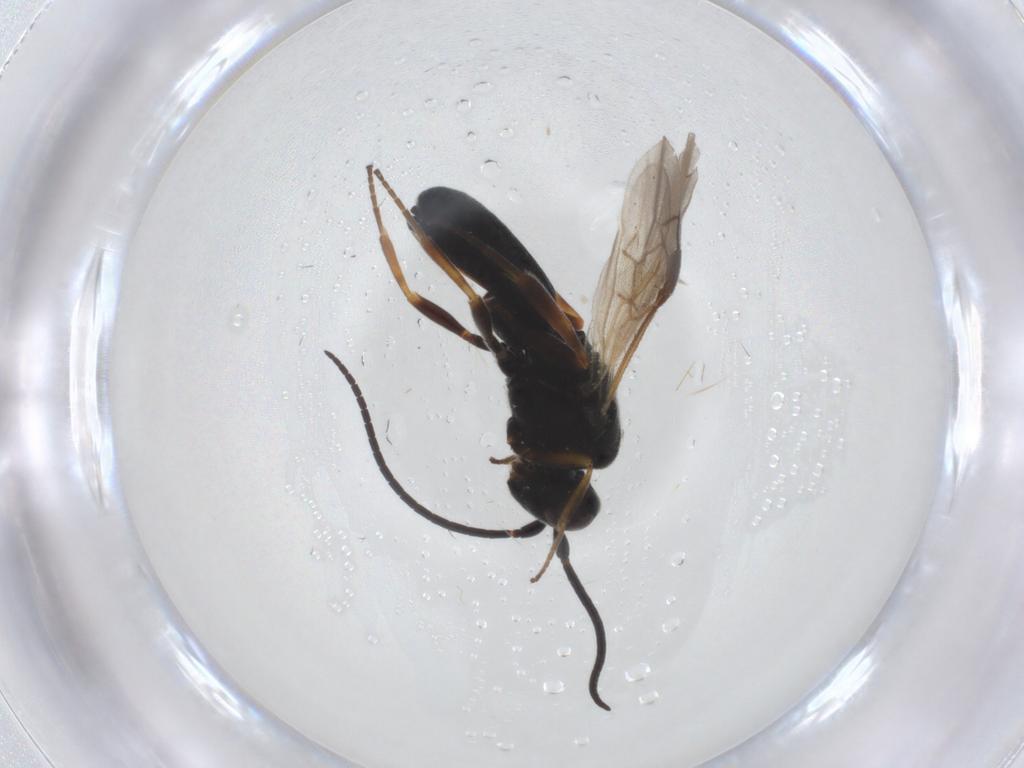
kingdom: Animalia
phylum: Arthropoda
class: Insecta
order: Hymenoptera
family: Braconidae
